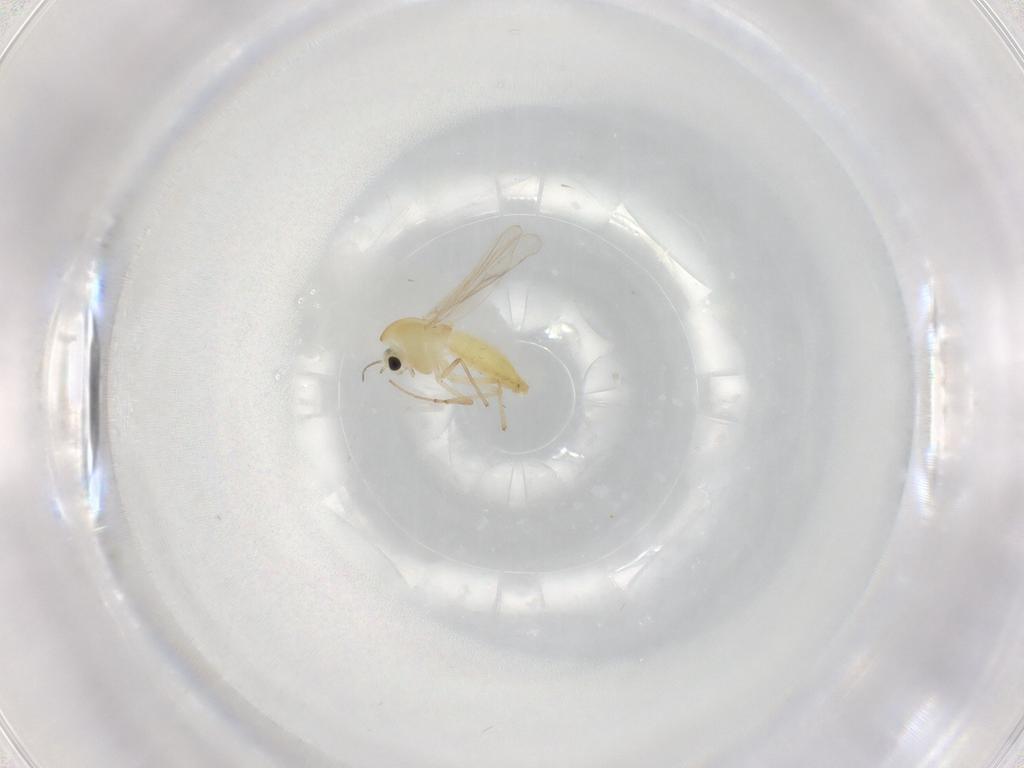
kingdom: Animalia
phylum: Arthropoda
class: Insecta
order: Diptera
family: Chironomidae
